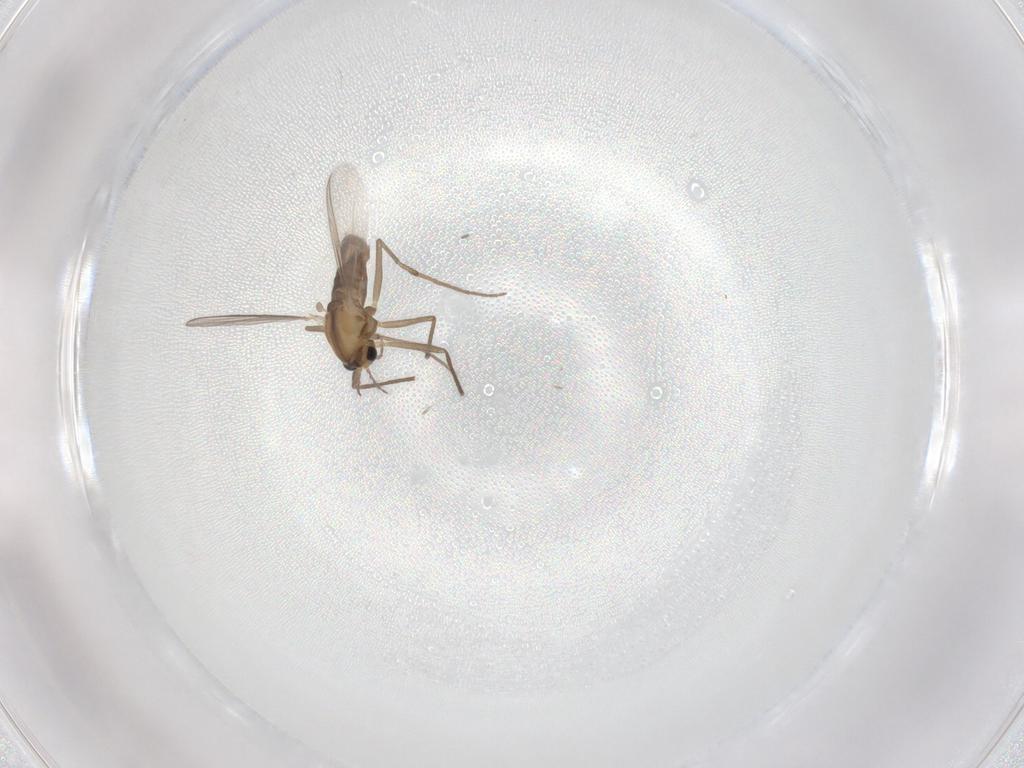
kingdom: Animalia
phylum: Arthropoda
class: Insecta
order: Diptera
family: Chironomidae
